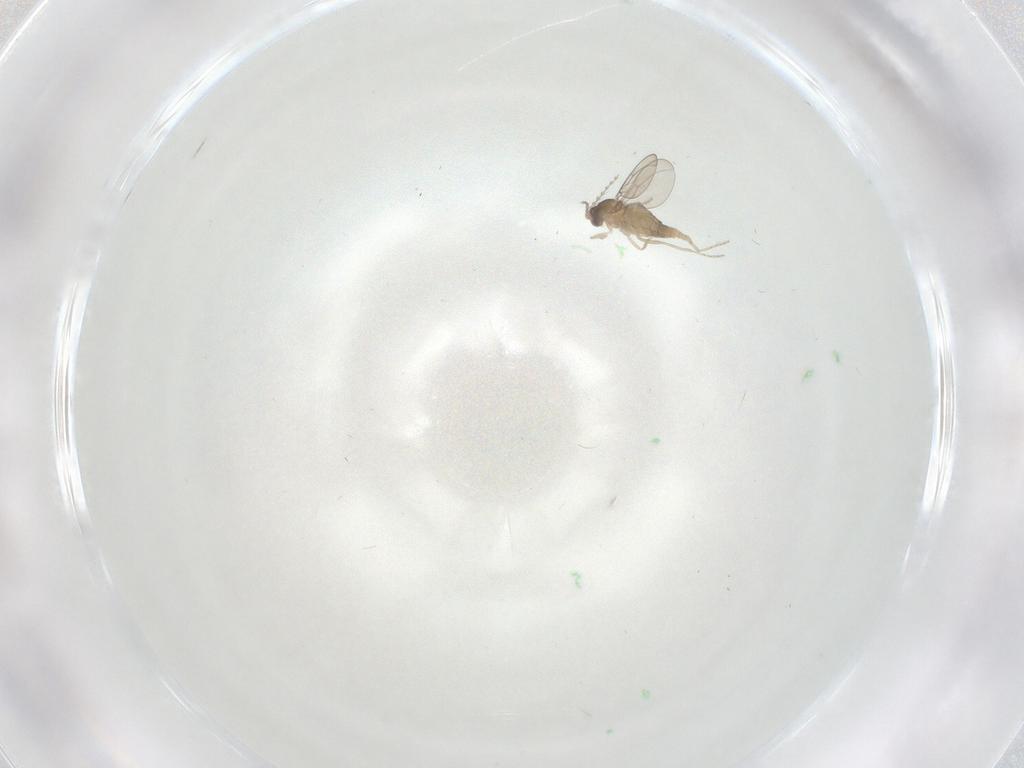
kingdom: Animalia
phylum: Arthropoda
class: Insecta
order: Diptera
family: Cecidomyiidae
